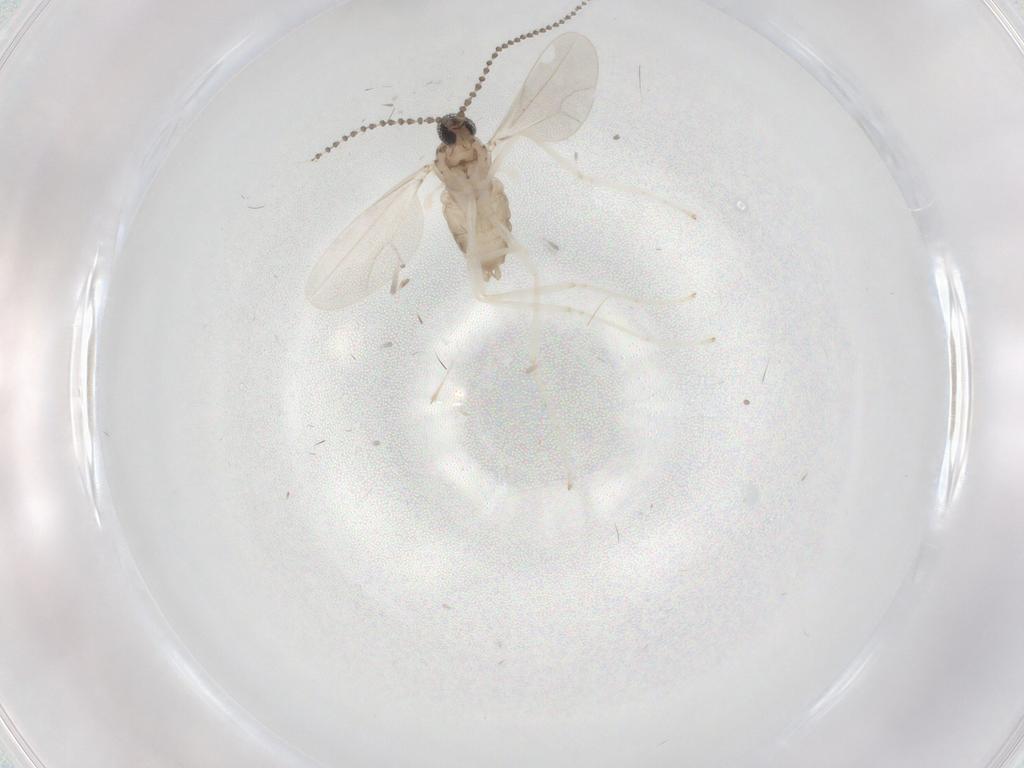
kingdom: Animalia
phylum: Arthropoda
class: Insecta
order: Diptera
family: Cecidomyiidae
